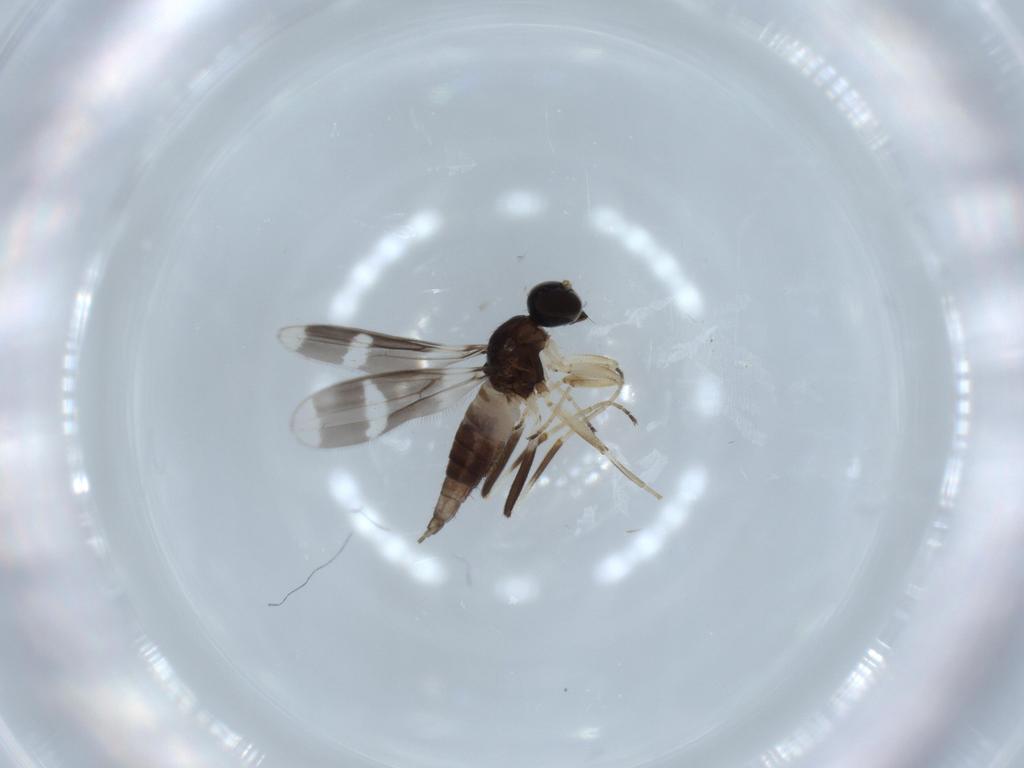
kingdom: Animalia
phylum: Arthropoda
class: Insecta
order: Diptera
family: Hybotidae
